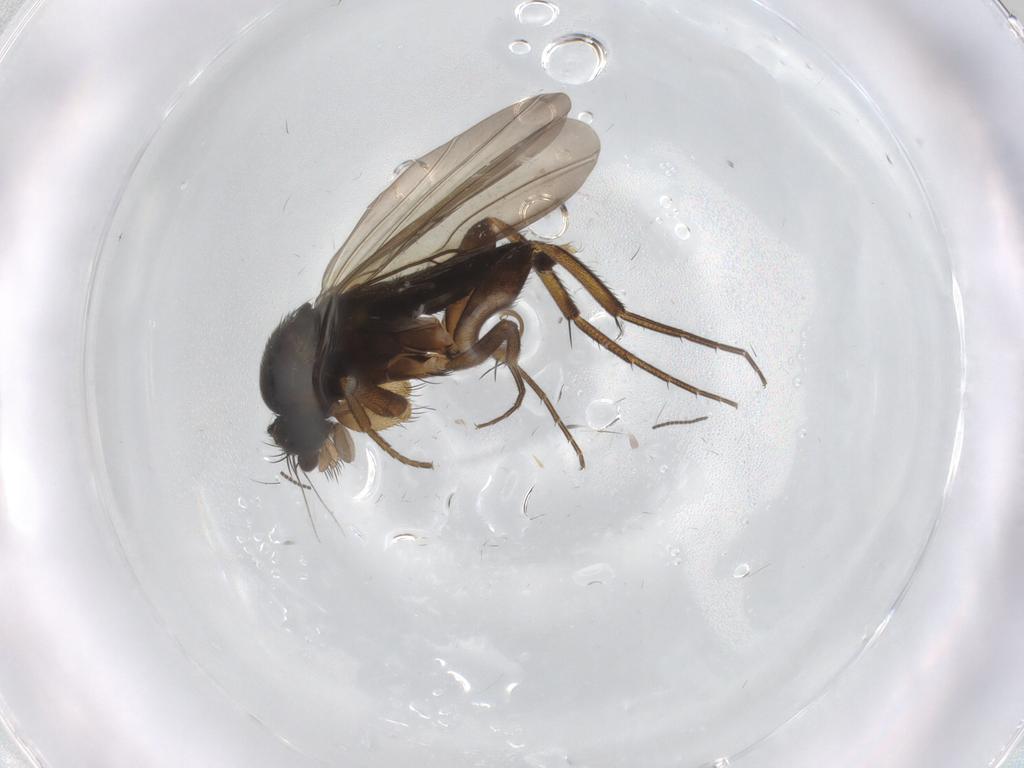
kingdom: Animalia
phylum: Arthropoda
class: Insecta
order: Diptera
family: Phoridae
